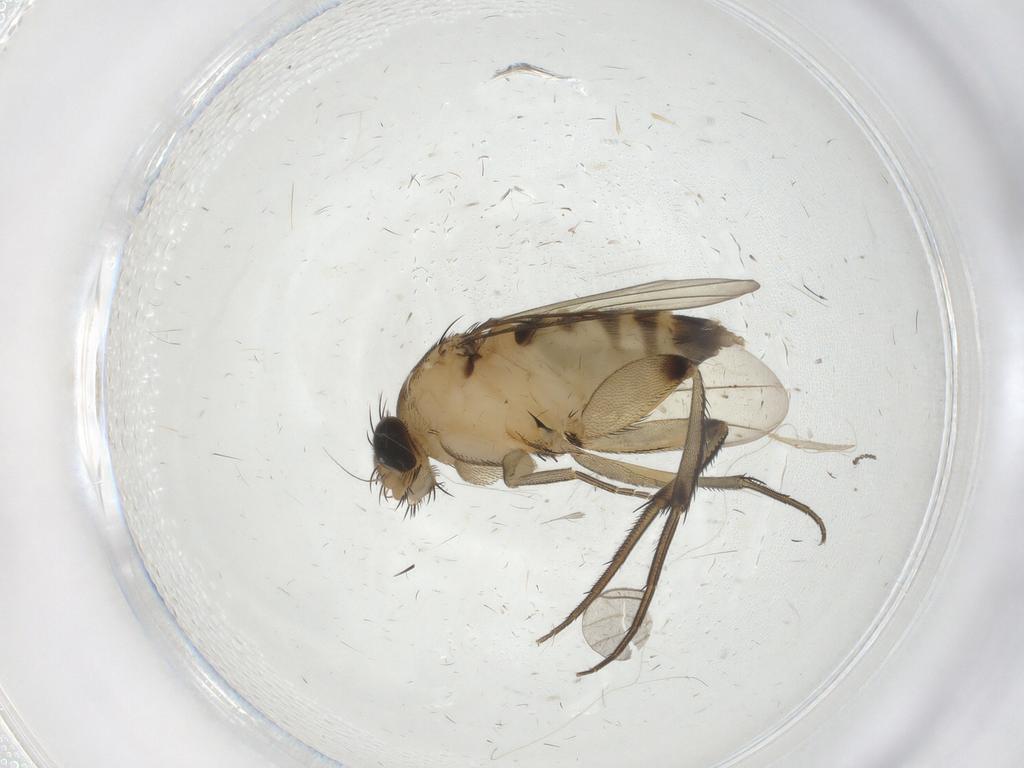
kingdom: Animalia
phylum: Arthropoda
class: Insecta
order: Diptera
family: Phoridae
